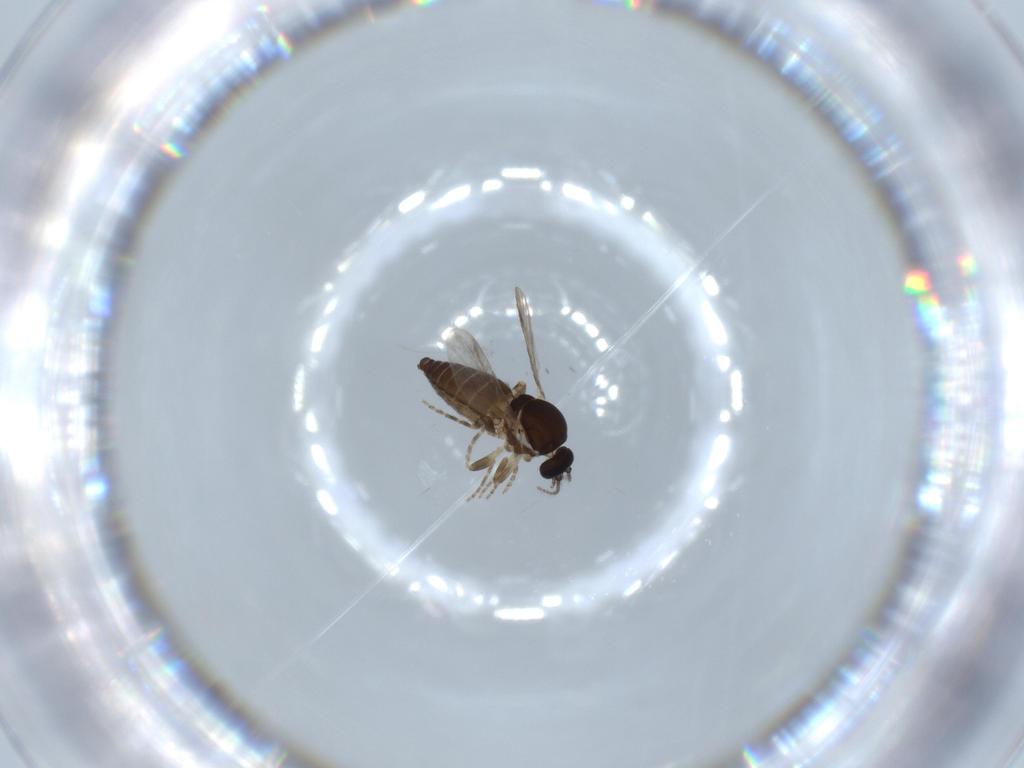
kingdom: Animalia
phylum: Arthropoda
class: Insecta
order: Diptera
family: Ceratopogonidae
